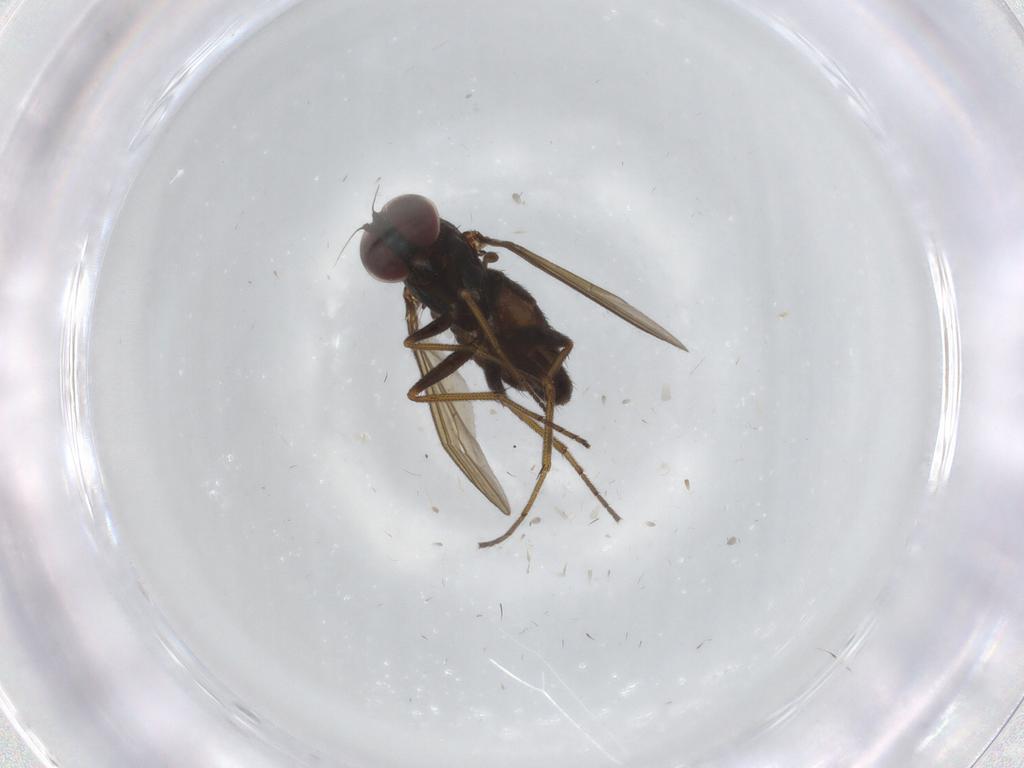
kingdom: Animalia
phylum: Arthropoda
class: Insecta
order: Diptera
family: Dolichopodidae
